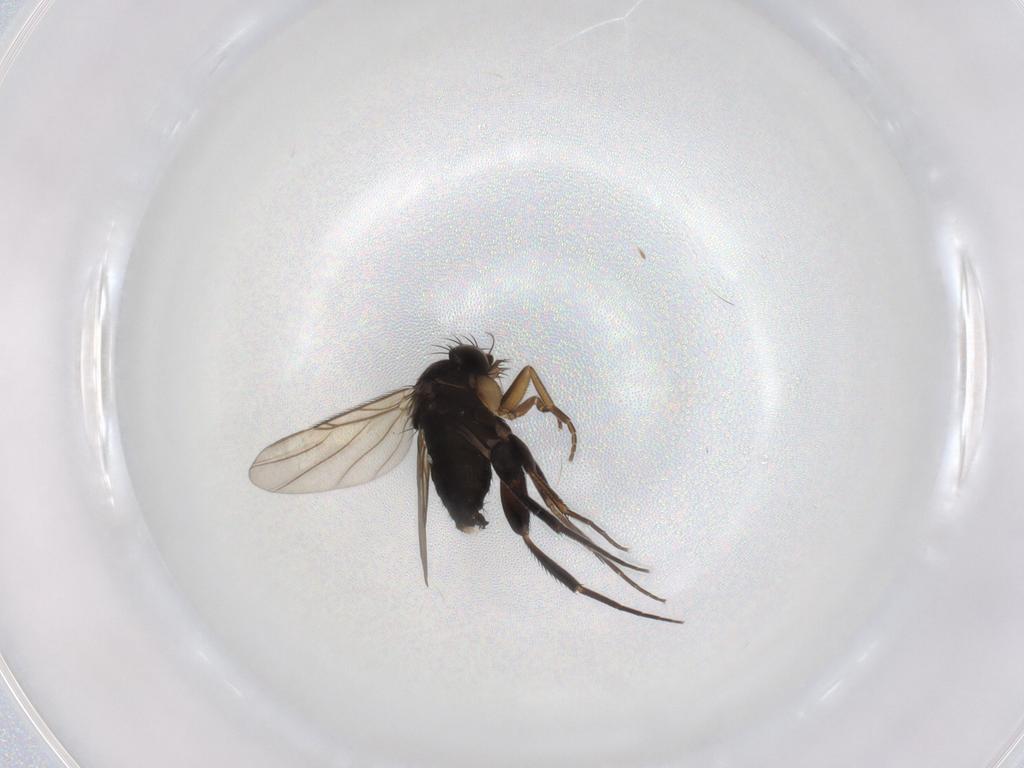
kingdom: Animalia
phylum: Arthropoda
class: Insecta
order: Diptera
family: Phoridae
